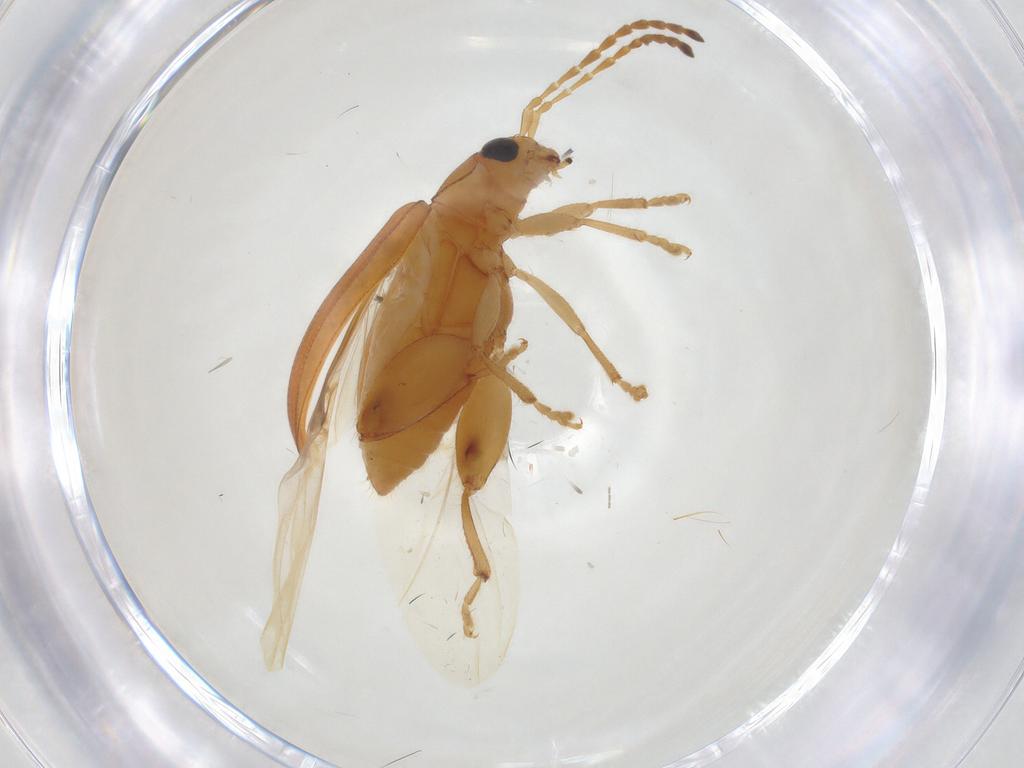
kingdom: Animalia
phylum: Arthropoda
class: Insecta
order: Coleoptera
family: Chrysomelidae
